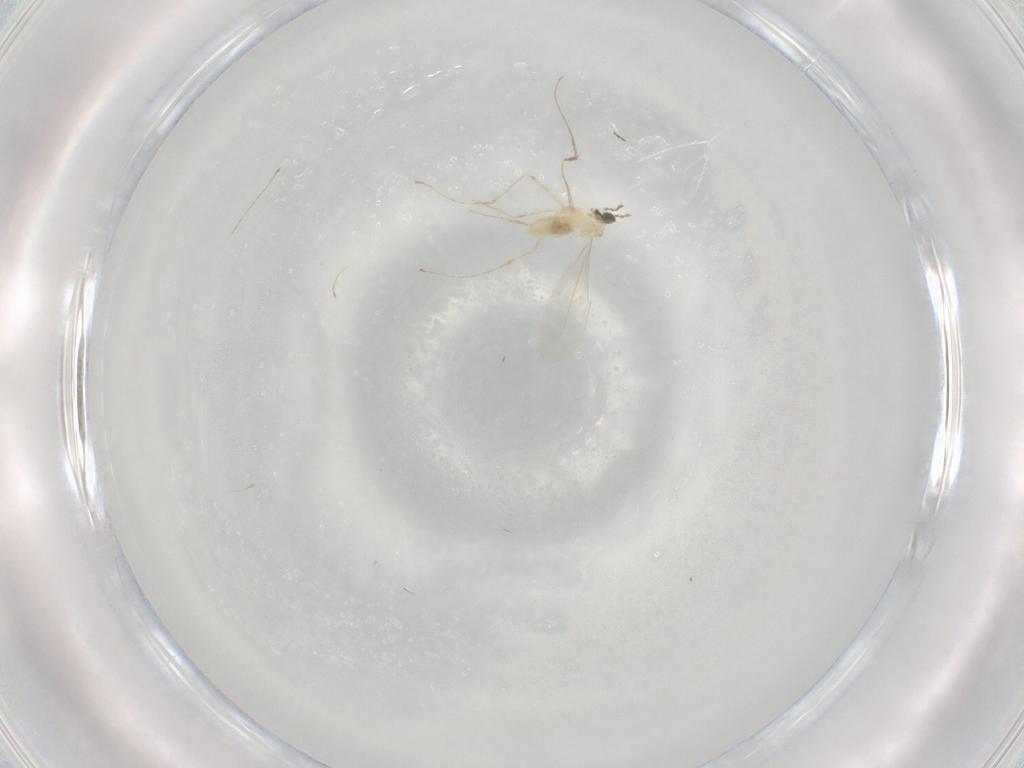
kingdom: Animalia
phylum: Arthropoda
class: Insecta
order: Diptera
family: Cecidomyiidae
